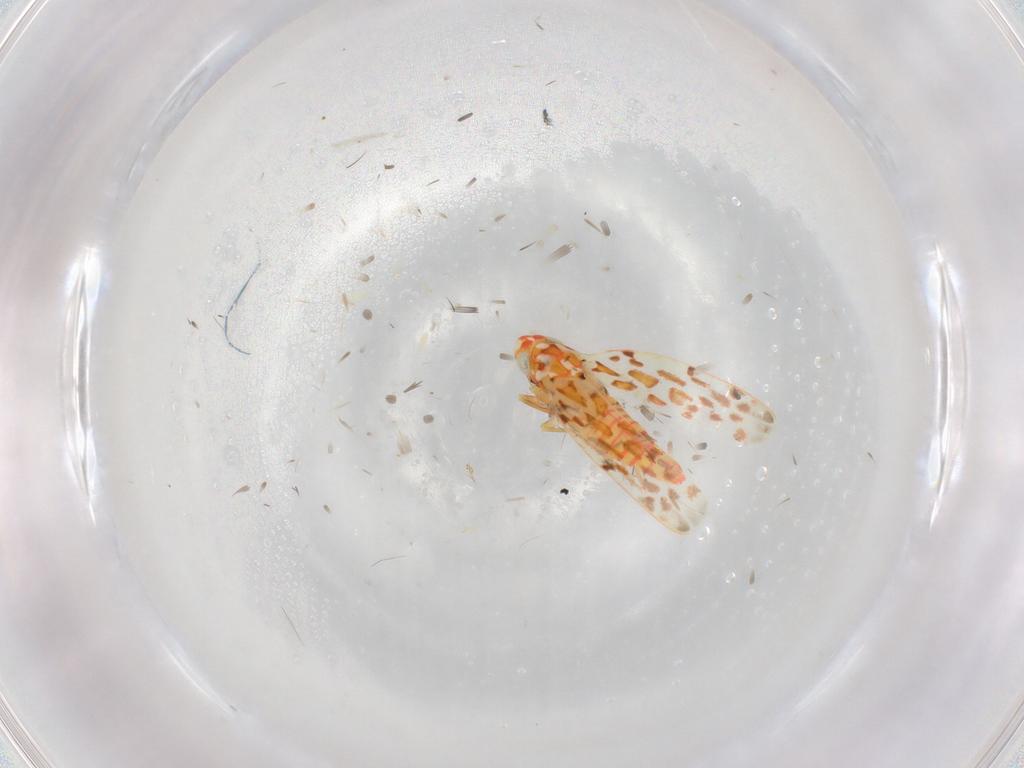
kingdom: Animalia
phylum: Arthropoda
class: Insecta
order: Hemiptera
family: Cicadellidae
